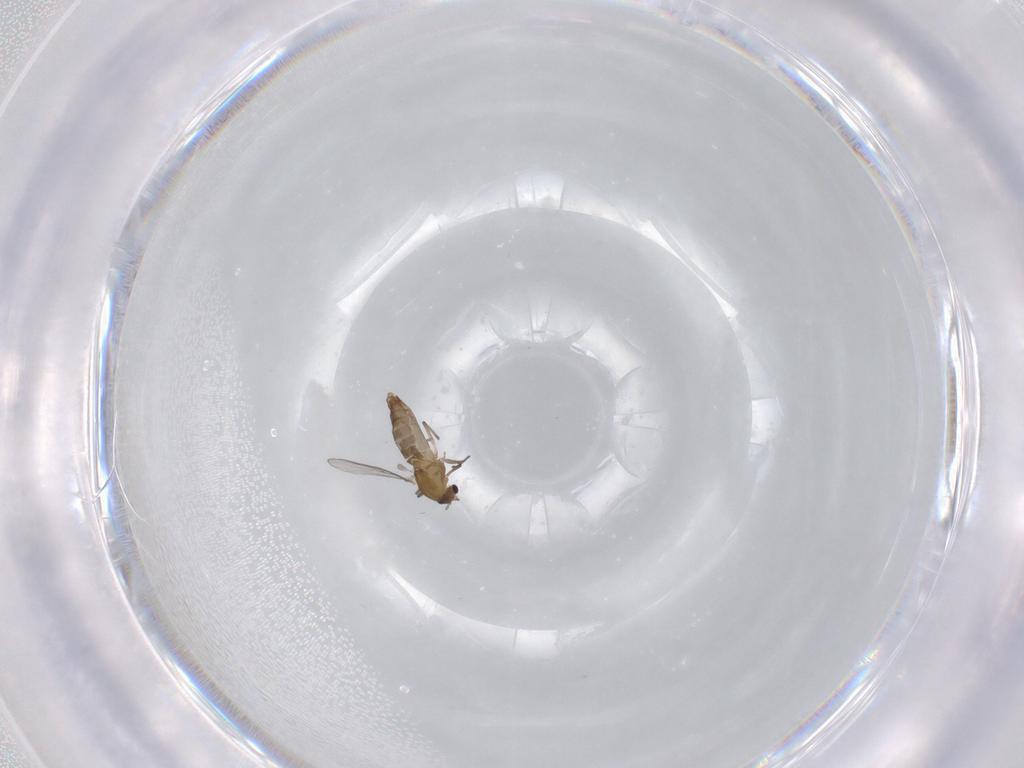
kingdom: Animalia
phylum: Arthropoda
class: Insecta
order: Diptera
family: Chironomidae
